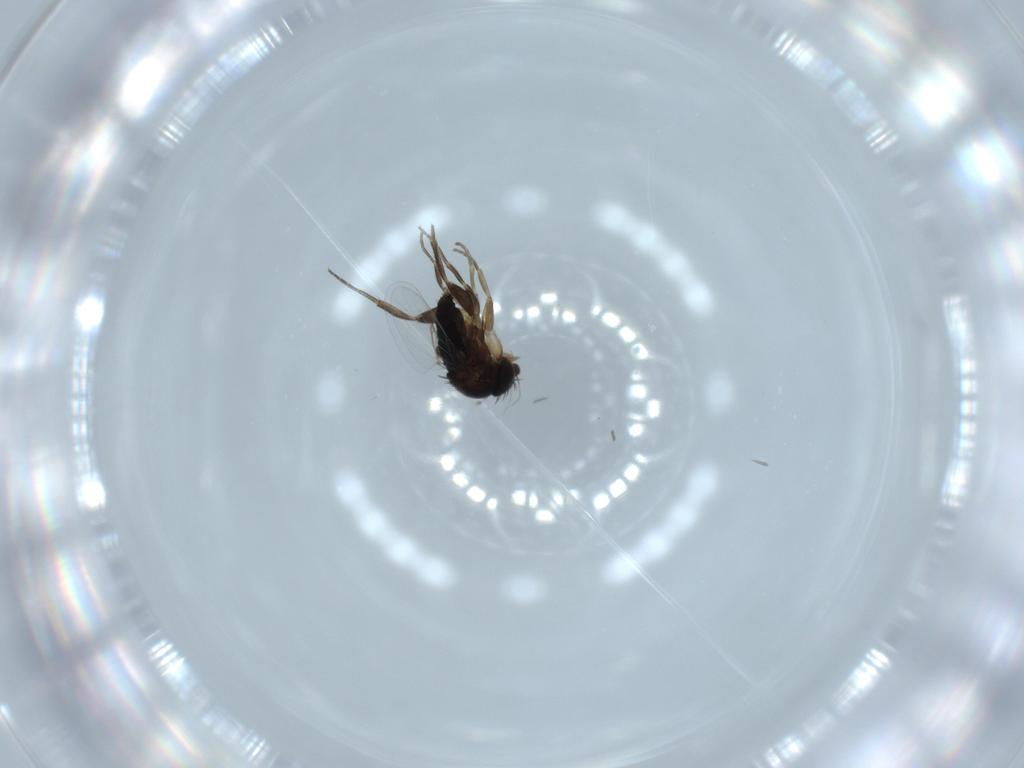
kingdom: Animalia
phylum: Arthropoda
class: Insecta
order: Diptera
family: Phoridae
